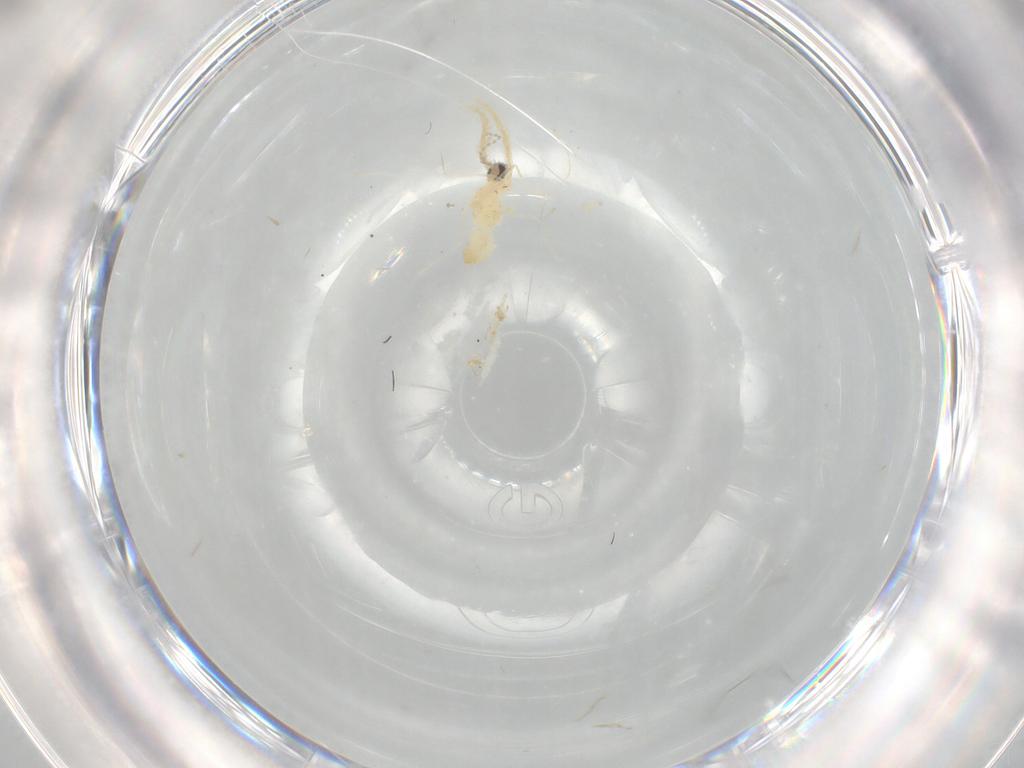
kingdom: Animalia
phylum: Arthropoda
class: Insecta
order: Diptera
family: Cecidomyiidae
